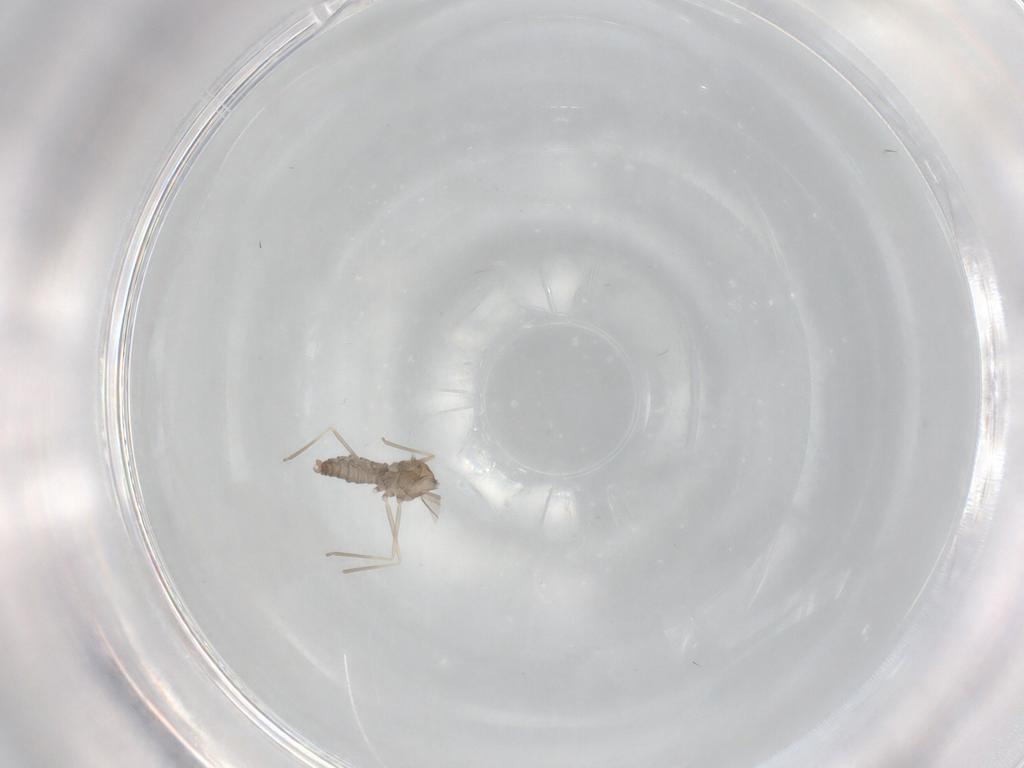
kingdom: Animalia
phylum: Arthropoda
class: Insecta
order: Diptera
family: Cecidomyiidae
